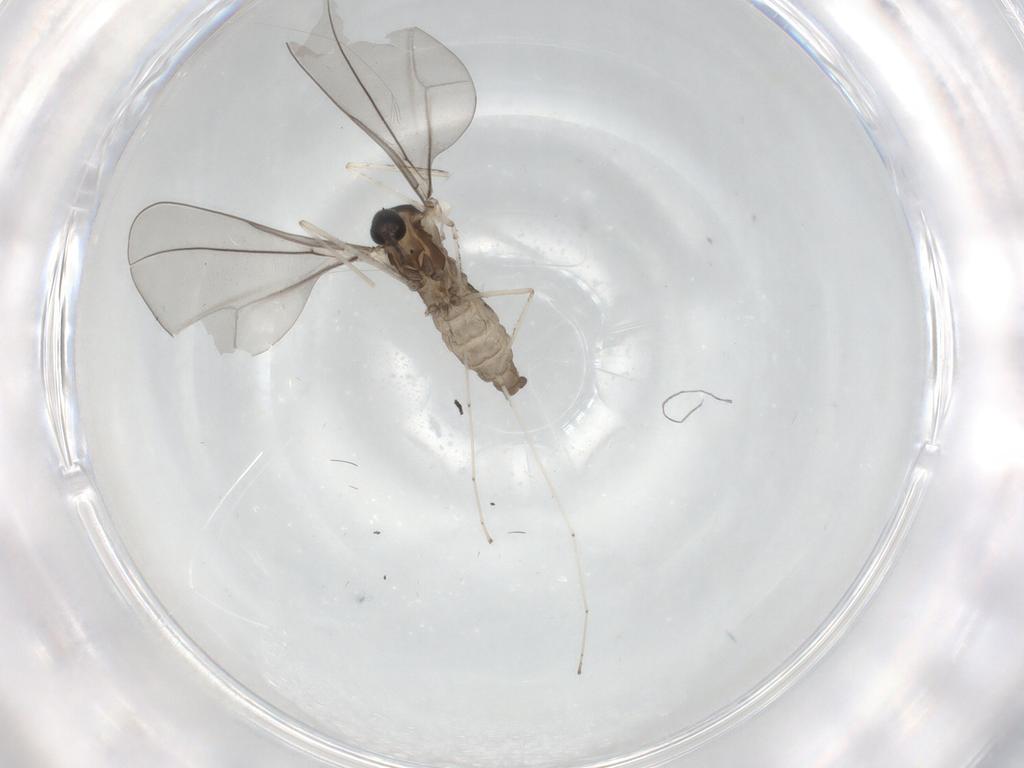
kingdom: Animalia
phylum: Arthropoda
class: Insecta
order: Diptera
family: Cecidomyiidae
